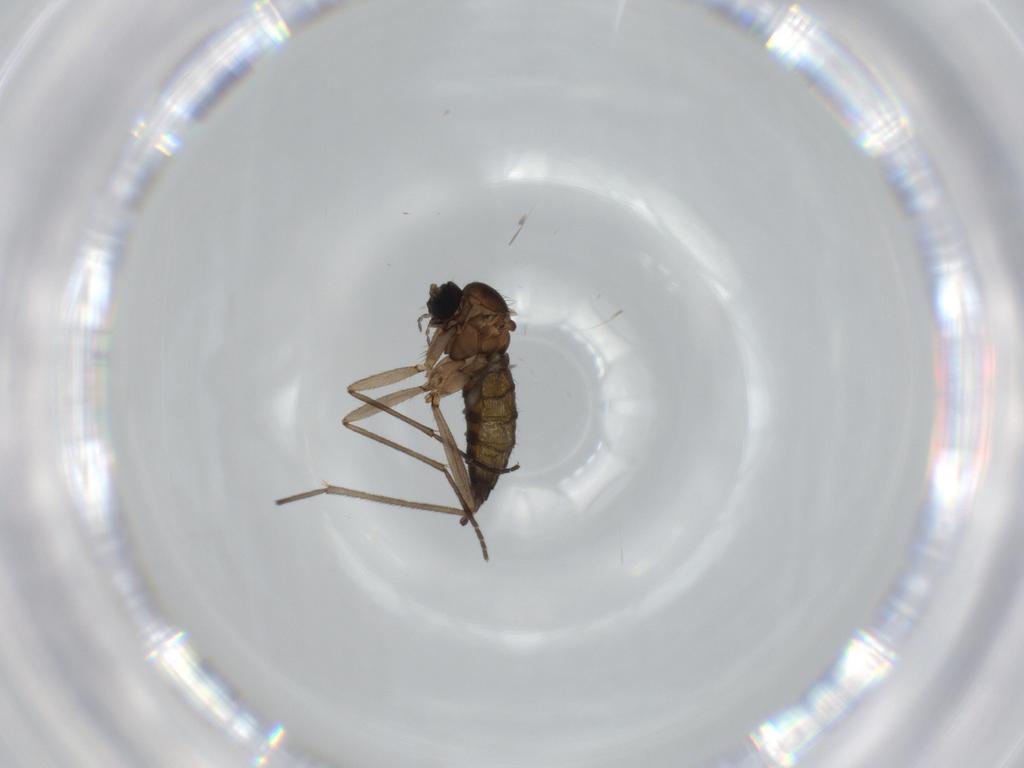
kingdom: Animalia
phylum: Arthropoda
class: Insecta
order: Diptera
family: Sciaridae
